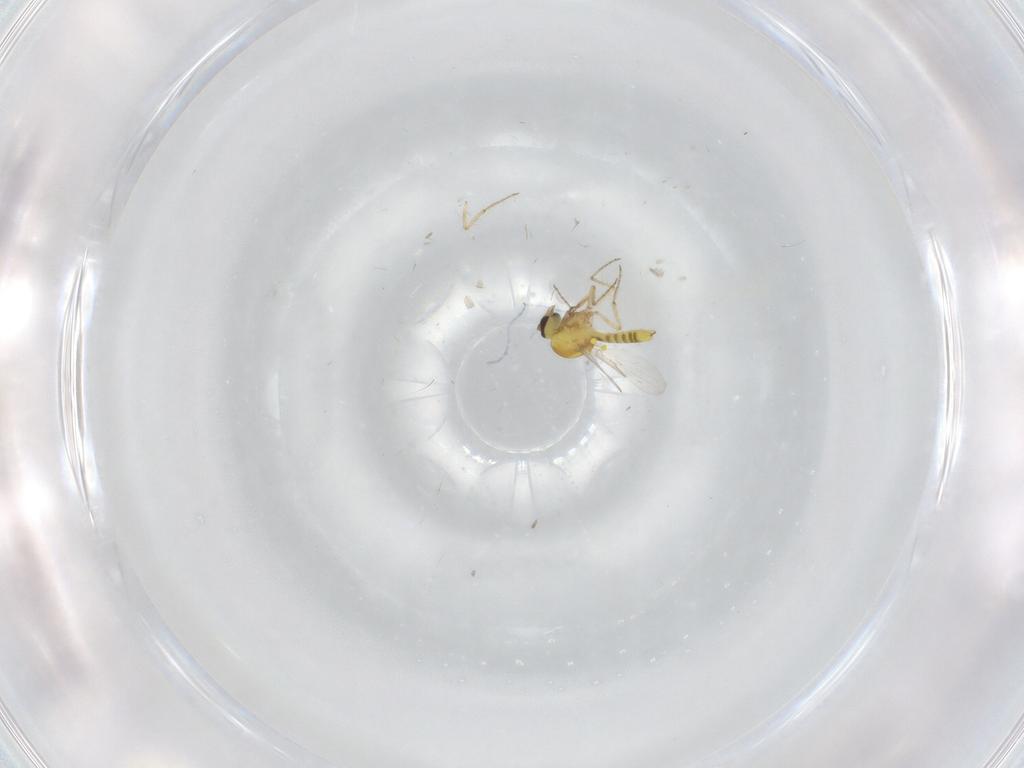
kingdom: Animalia
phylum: Arthropoda
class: Insecta
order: Diptera
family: Ceratopogonidae
